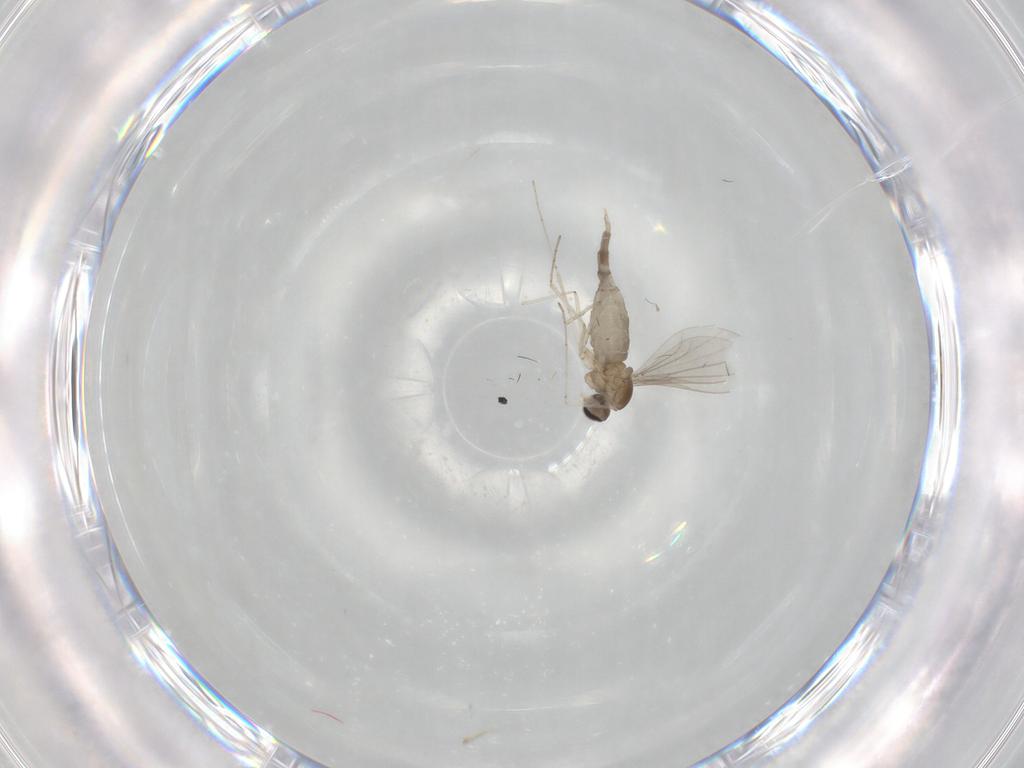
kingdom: Animalia
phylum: Arthropoda
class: Insecta
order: Diptera
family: Cecidomyiidae
